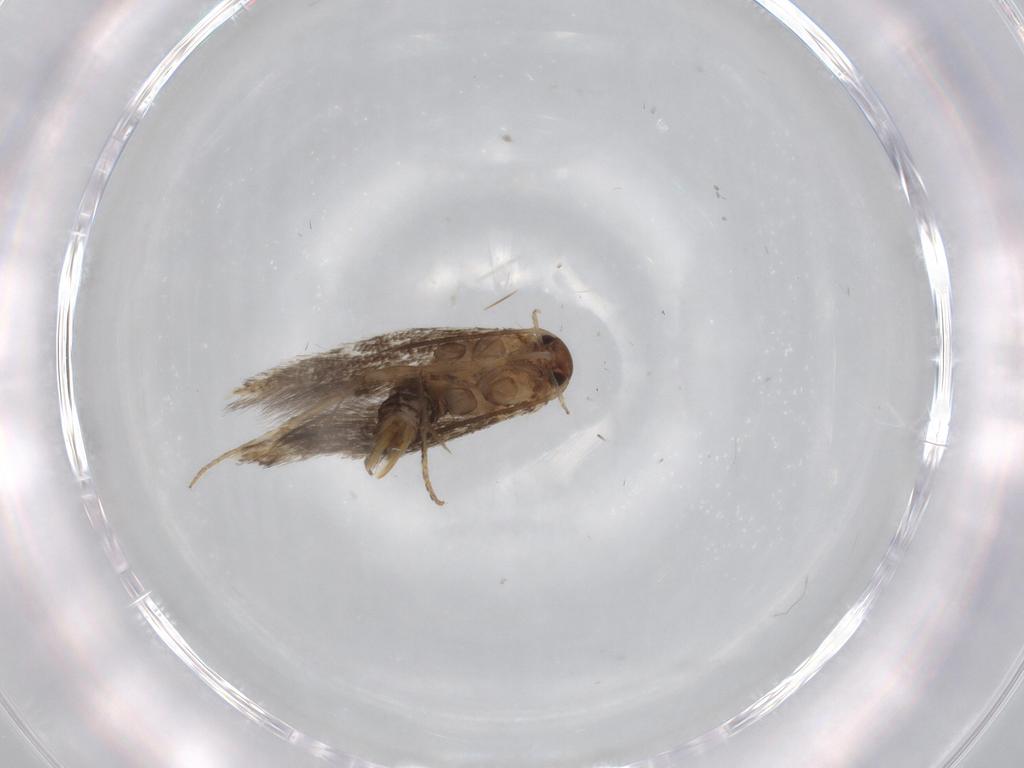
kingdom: Animalia
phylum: Arthropoda
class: Insecta
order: Lepidoptera
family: Elachistidae
